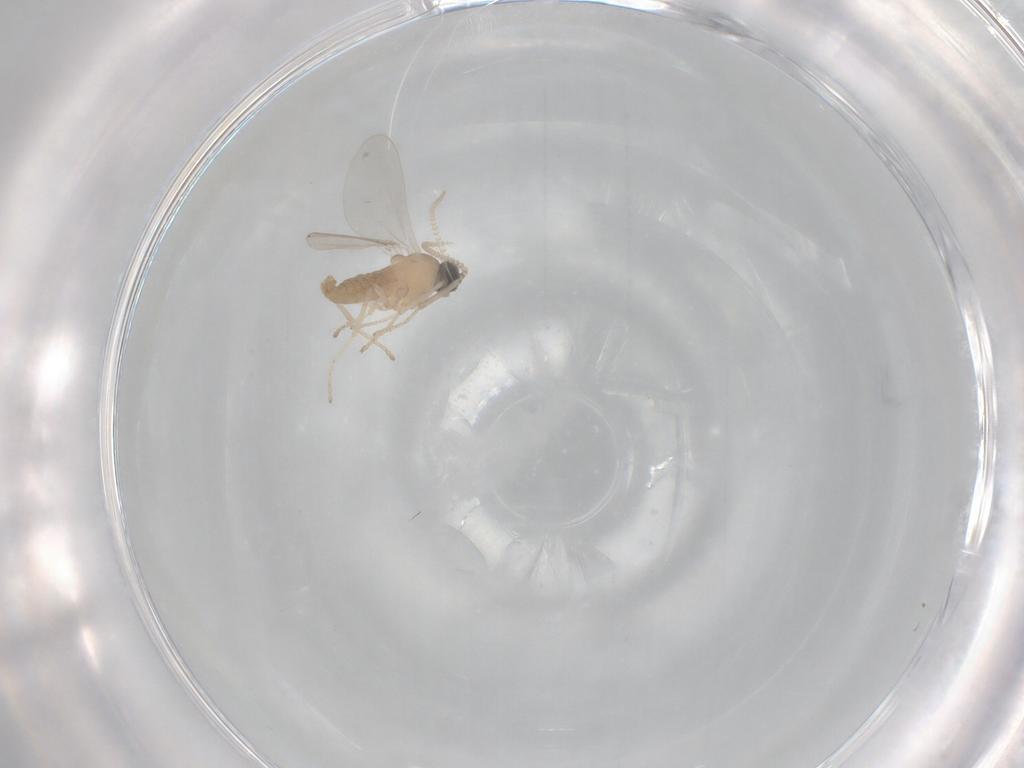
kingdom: Animalia
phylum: Arthropoda
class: Insecta
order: Diptera
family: Cecidomyiidae
